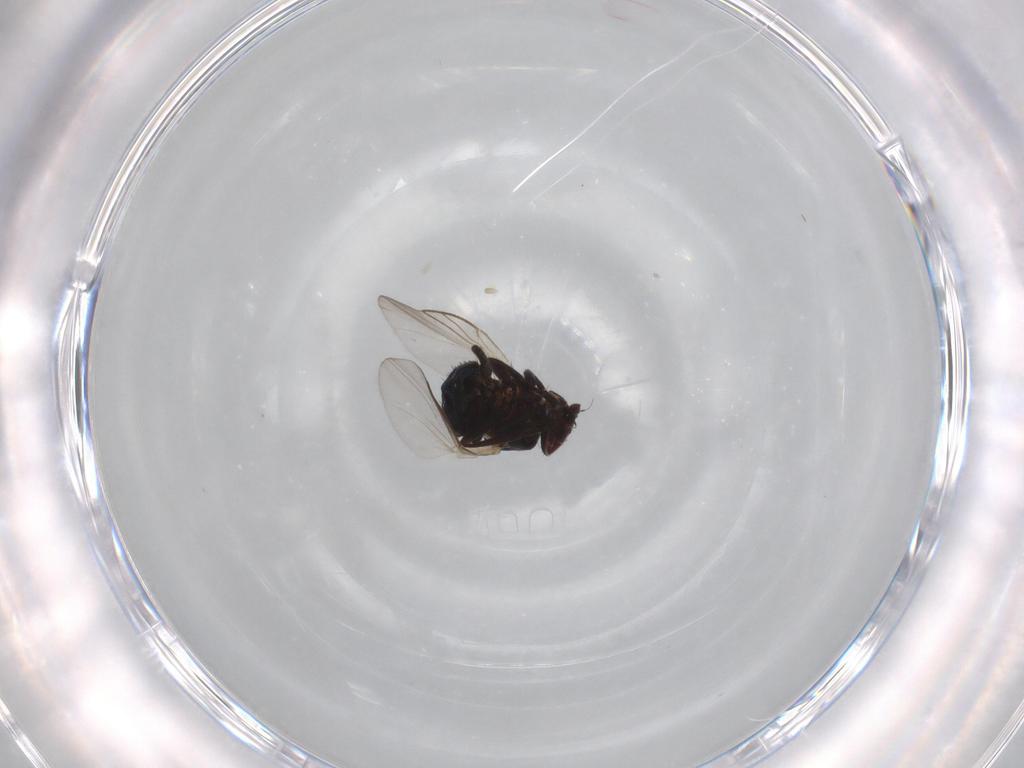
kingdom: Animalia
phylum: Arthropoda
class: Insecta
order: Diptera
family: Agromyzidae
